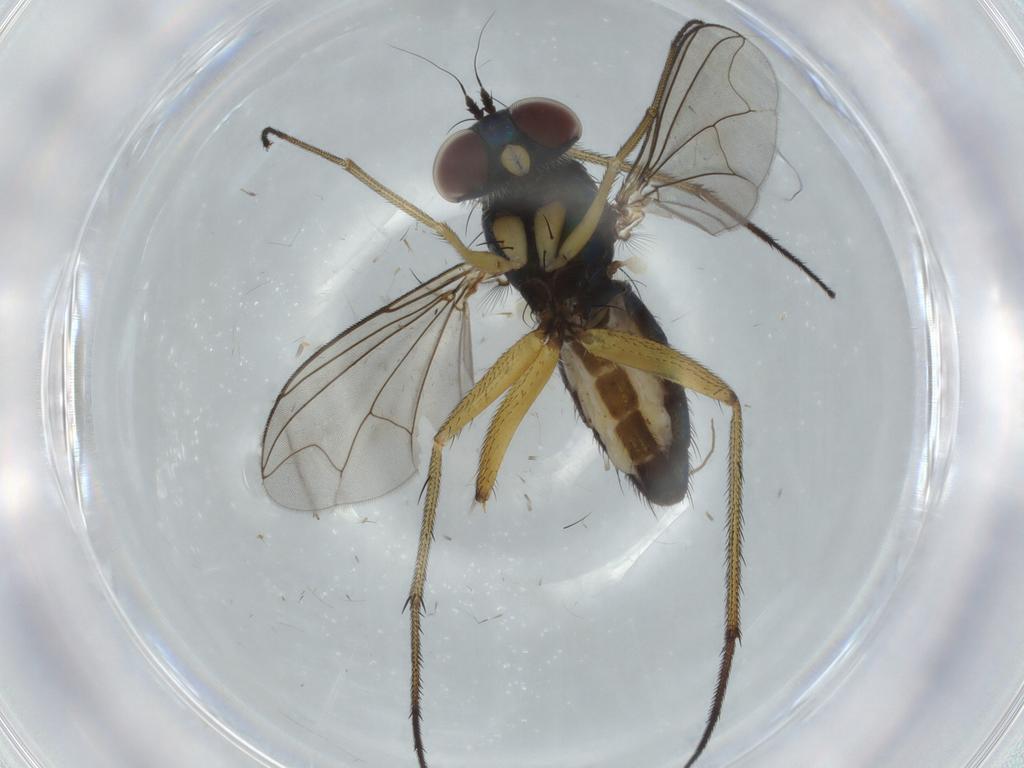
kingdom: Animalia
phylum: Arthropoda
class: Insecta
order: Diptera
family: Dolichopodidae
